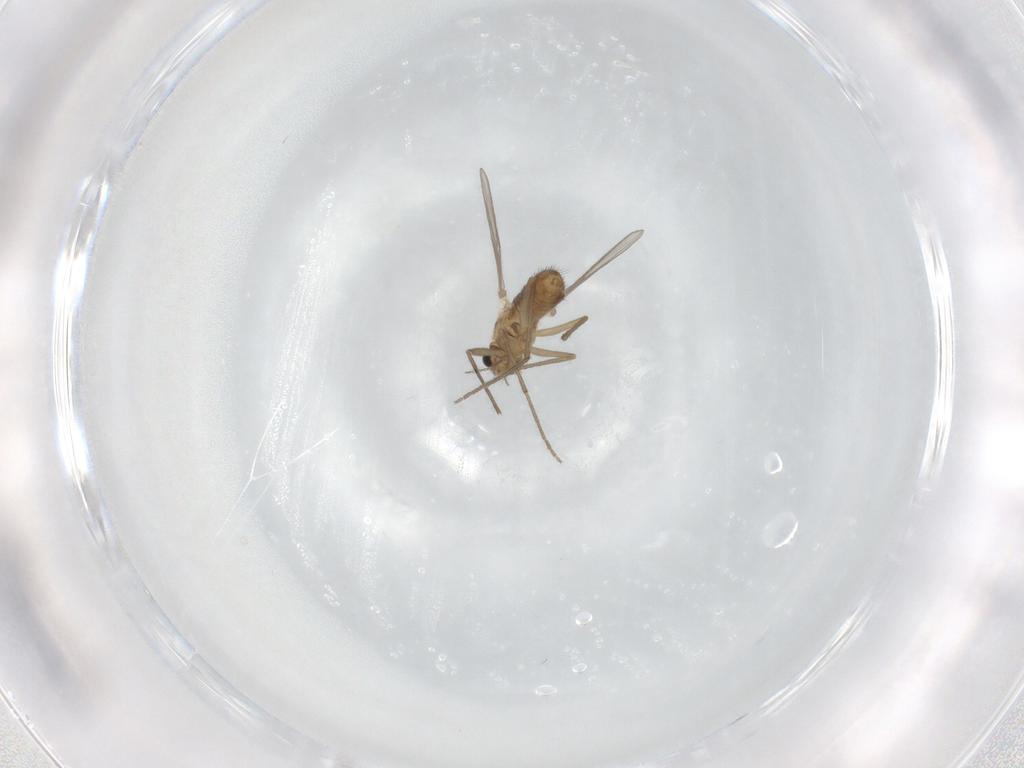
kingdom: Animalia
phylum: Arthropoda
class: Insecta
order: Diptera
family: Chironomidae
